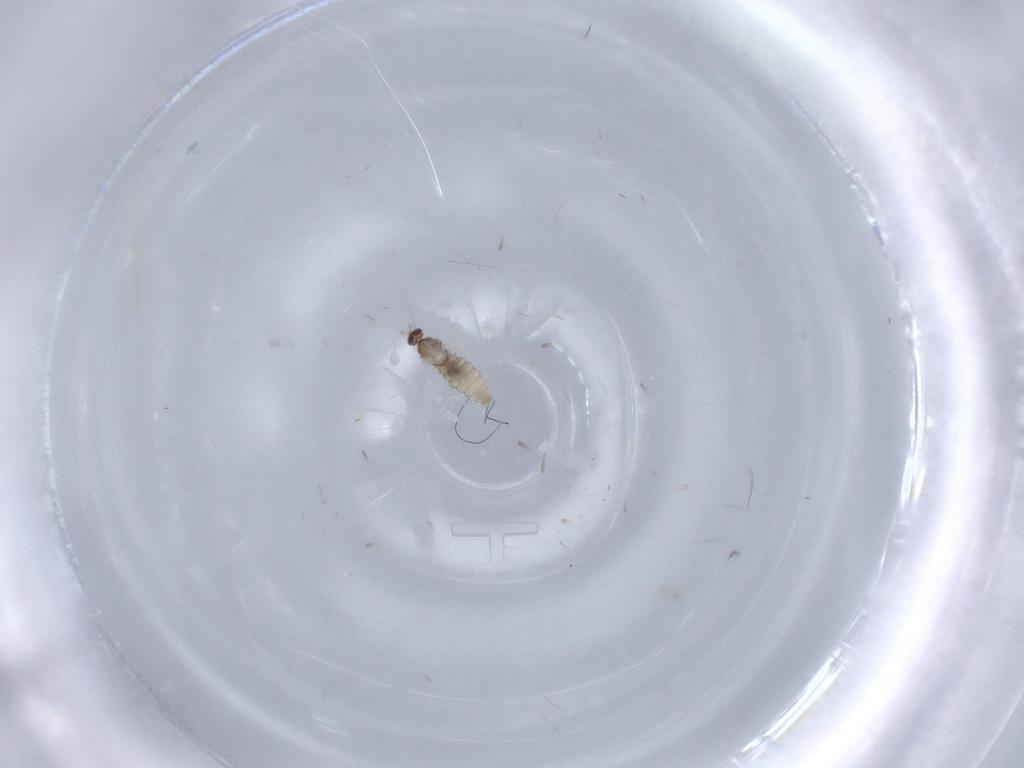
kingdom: Animalia
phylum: Arthropoda
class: Insecta
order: Diptera
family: Cecidomyiidae
